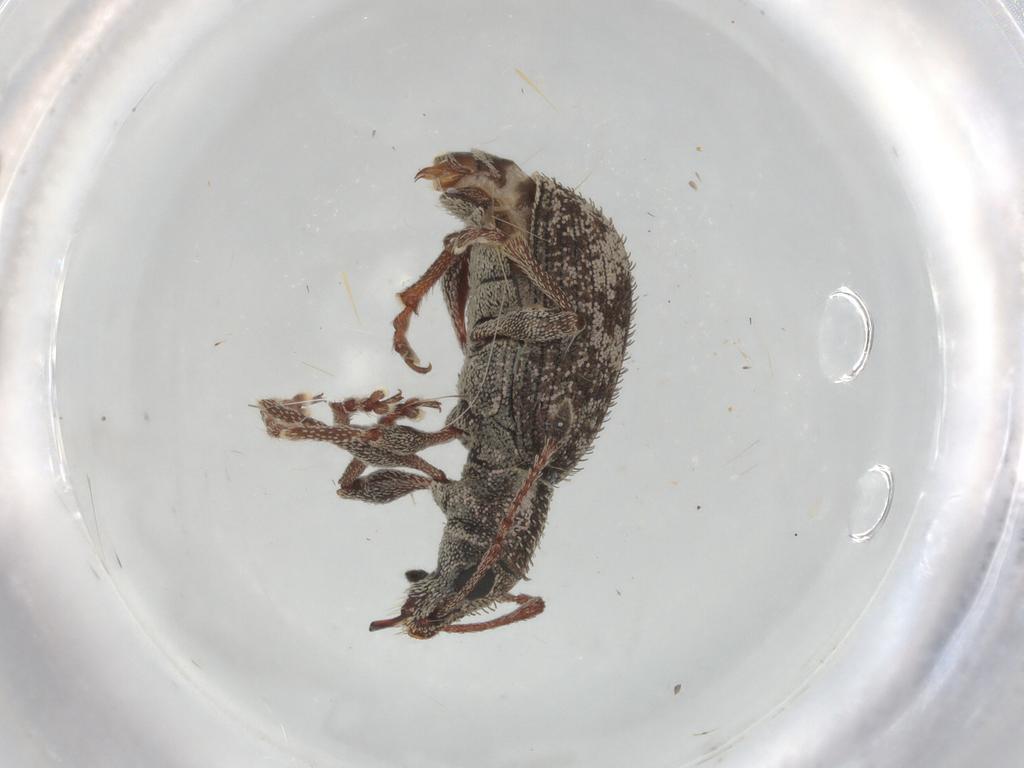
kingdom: Animalia
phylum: Arthropoda
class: Insecta
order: Coleoptera
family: Curculionidae
